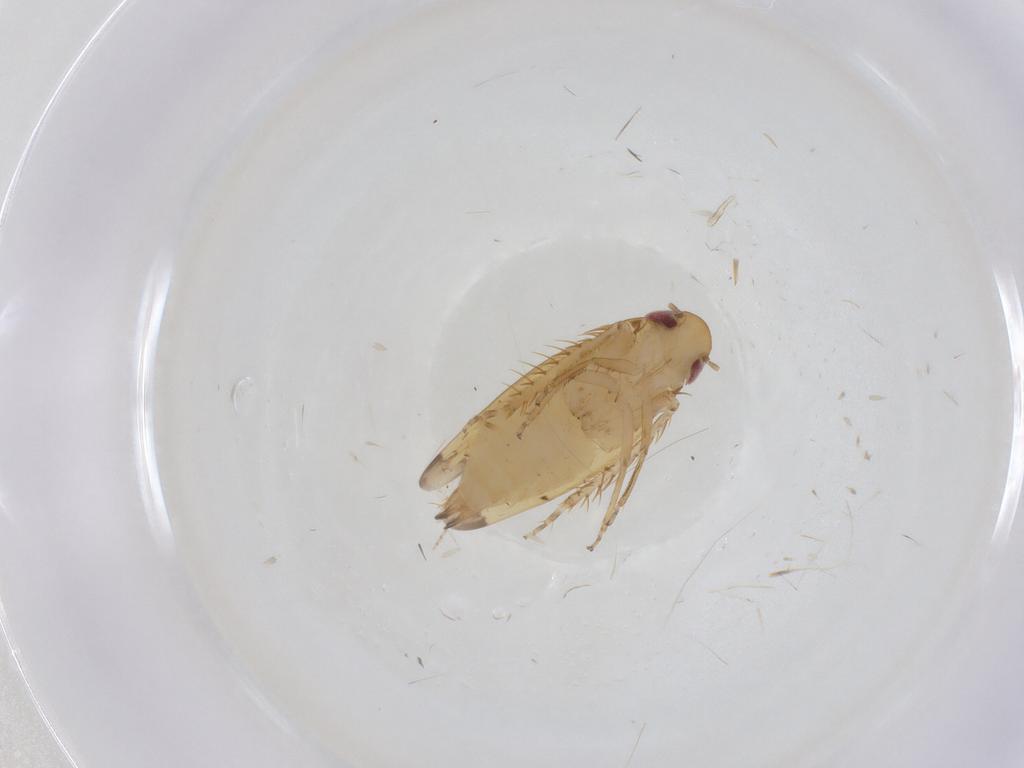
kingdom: Animalia
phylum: Arthropoda
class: Insecta
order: Hemiptera
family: Cicadellidae
